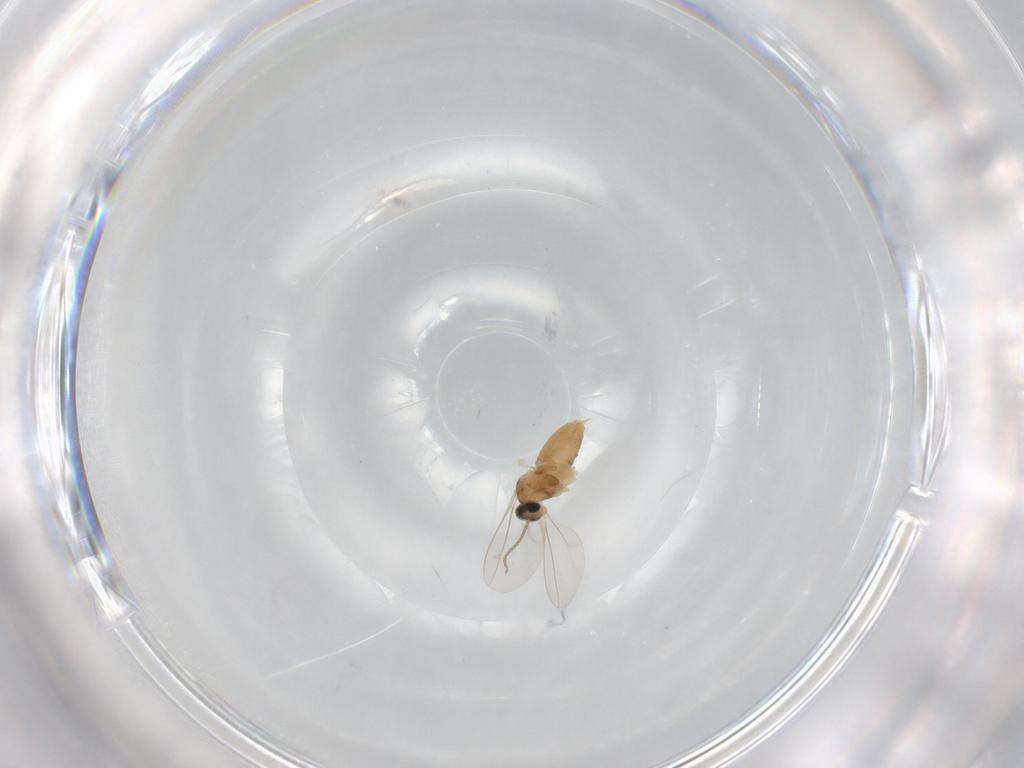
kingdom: Animalia
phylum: Arthropoda
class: Insecta
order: Diptera
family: Cecidomyiidae
